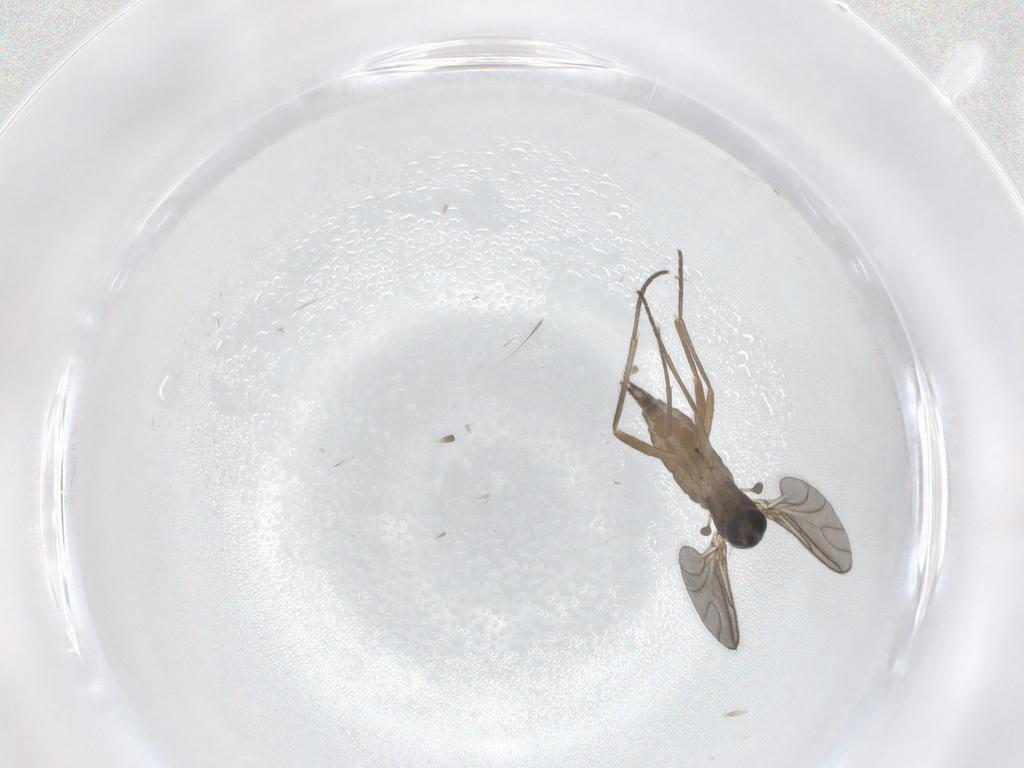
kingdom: Animalia
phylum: Arthropoda
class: Insecta
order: Diptera
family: Sciaridae
